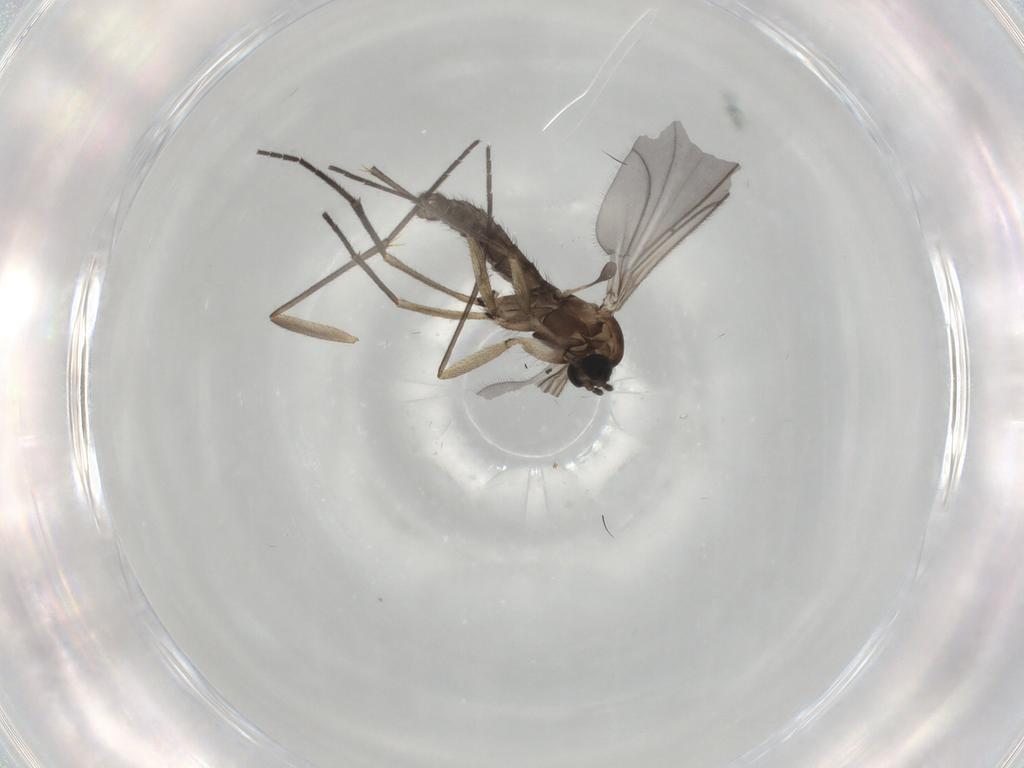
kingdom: Animalia
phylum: Arthropoda
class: Insecta
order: Diptera
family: Sciaridae
